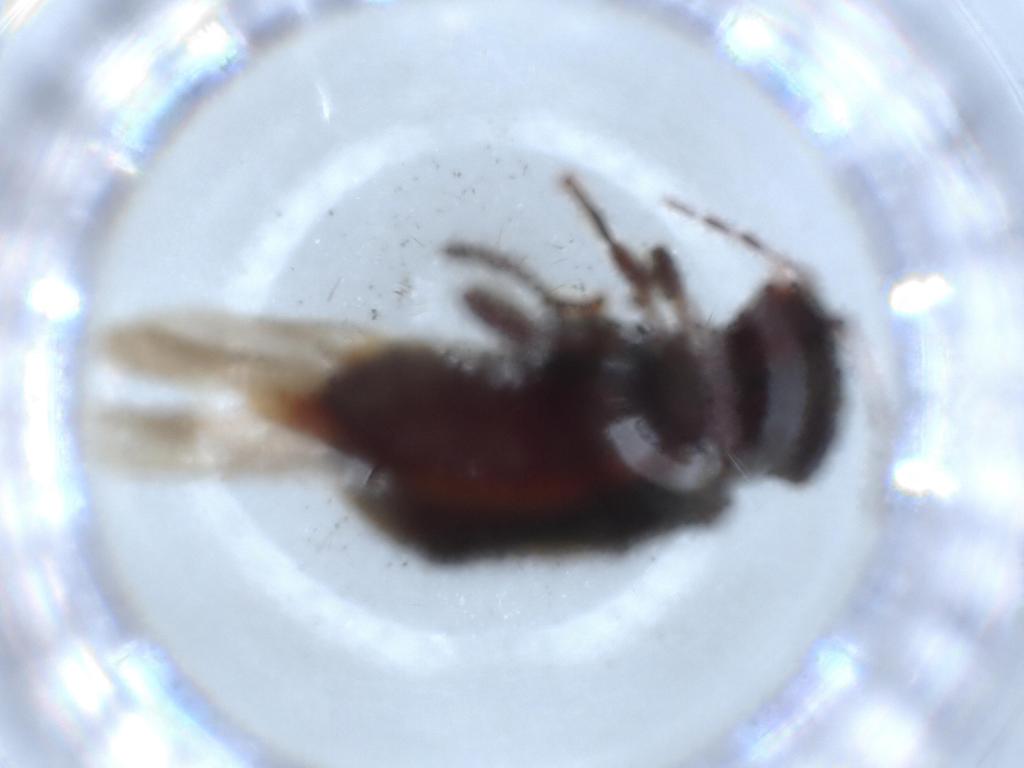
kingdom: Animalia
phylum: Arthropoda
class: Insecta
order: Coleoptera
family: Ptinidae
